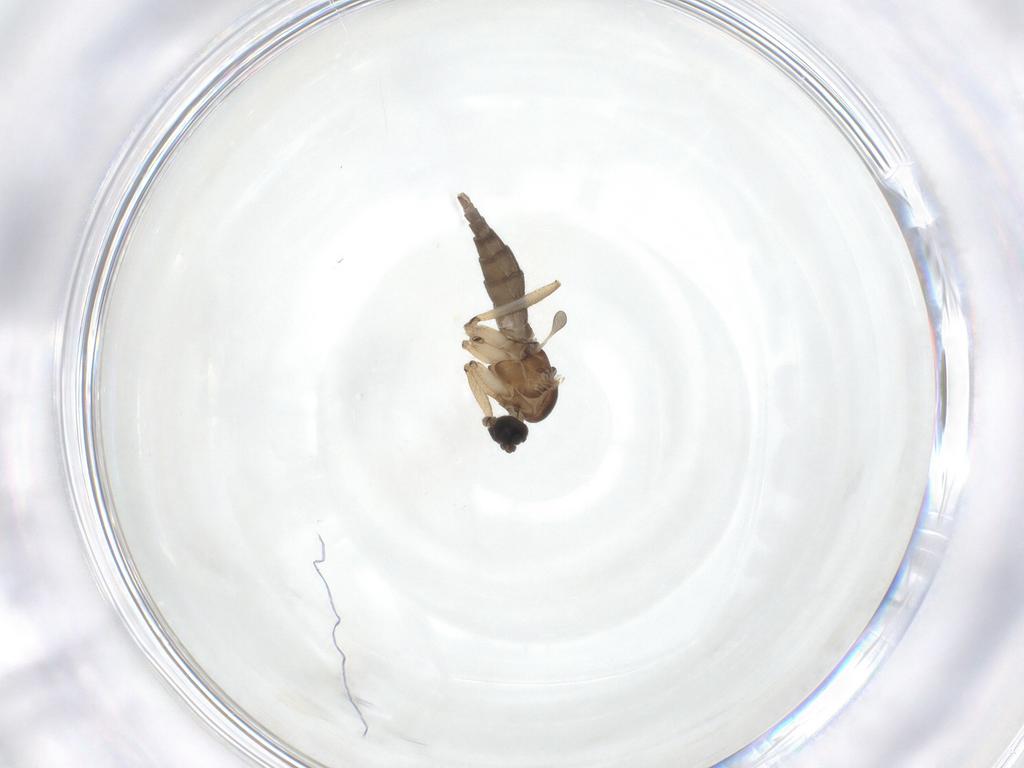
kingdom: Animalia
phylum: Arthropoda
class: Insecta
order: Diptera
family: Sciaridae
